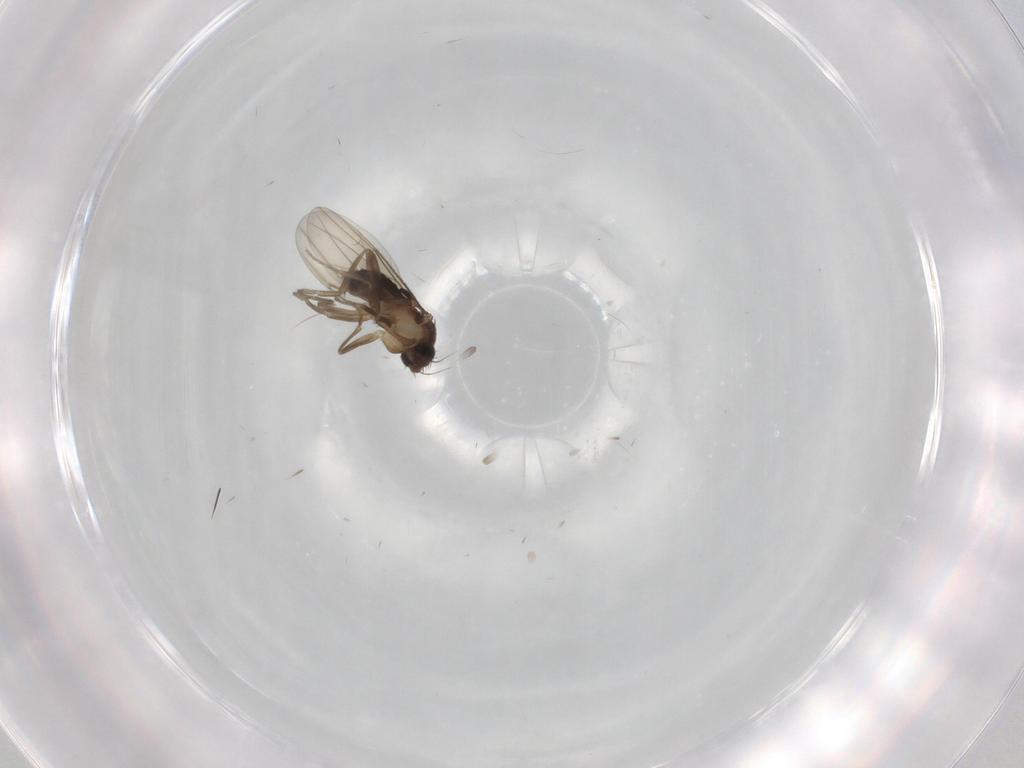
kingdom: Animalia
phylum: Arthropoda
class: Insecta
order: Diptera
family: Phoridae
